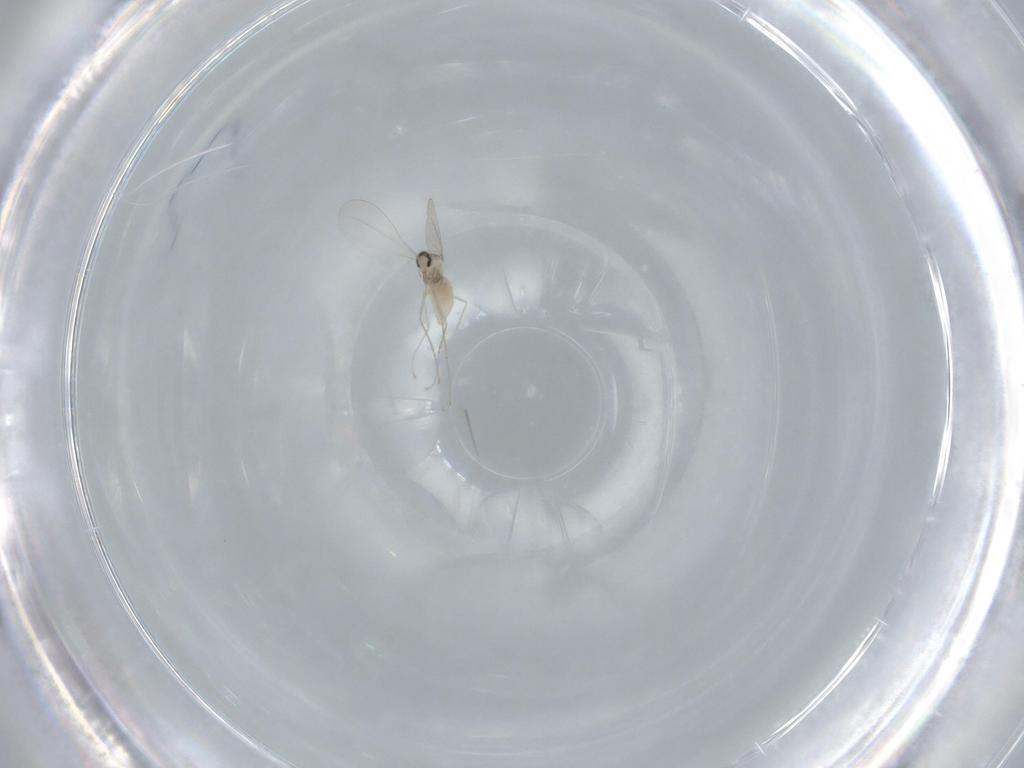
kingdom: Animalia
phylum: Arthropoda
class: Insecta
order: Diptera
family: Cecidomyiidae
